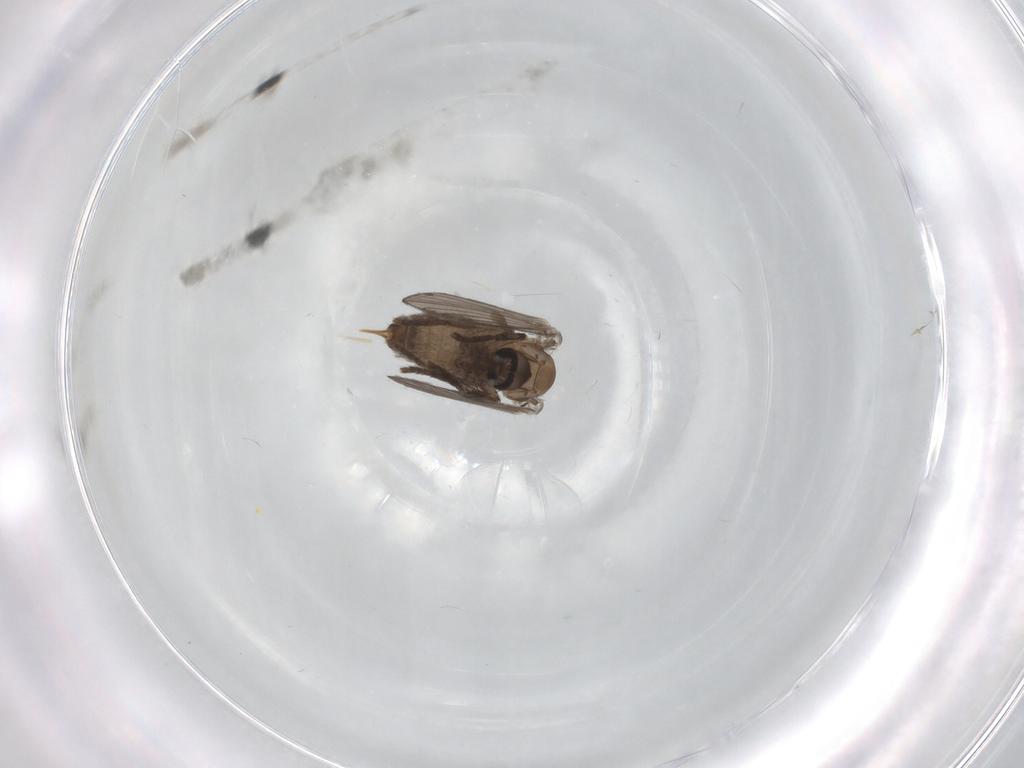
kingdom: Animalia
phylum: Arthropoda
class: Insecta
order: Diptera
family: Psychodidae
